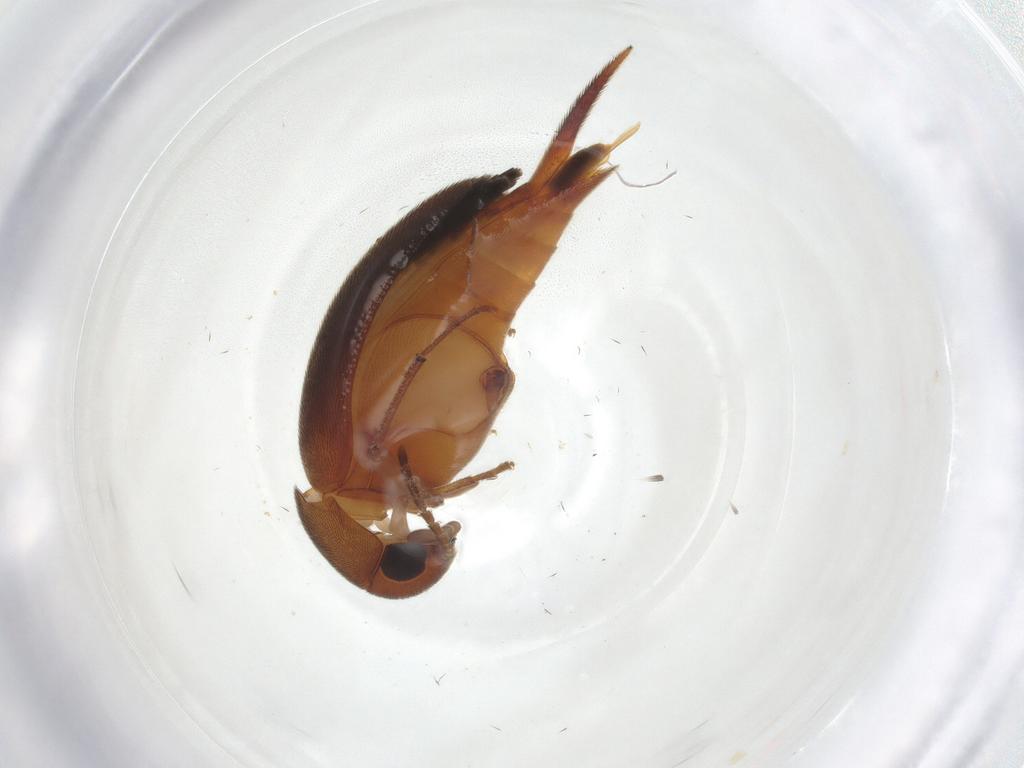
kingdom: Animalia
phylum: Arthropoda
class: Insecta
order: Coleoptera
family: Mordellidae
